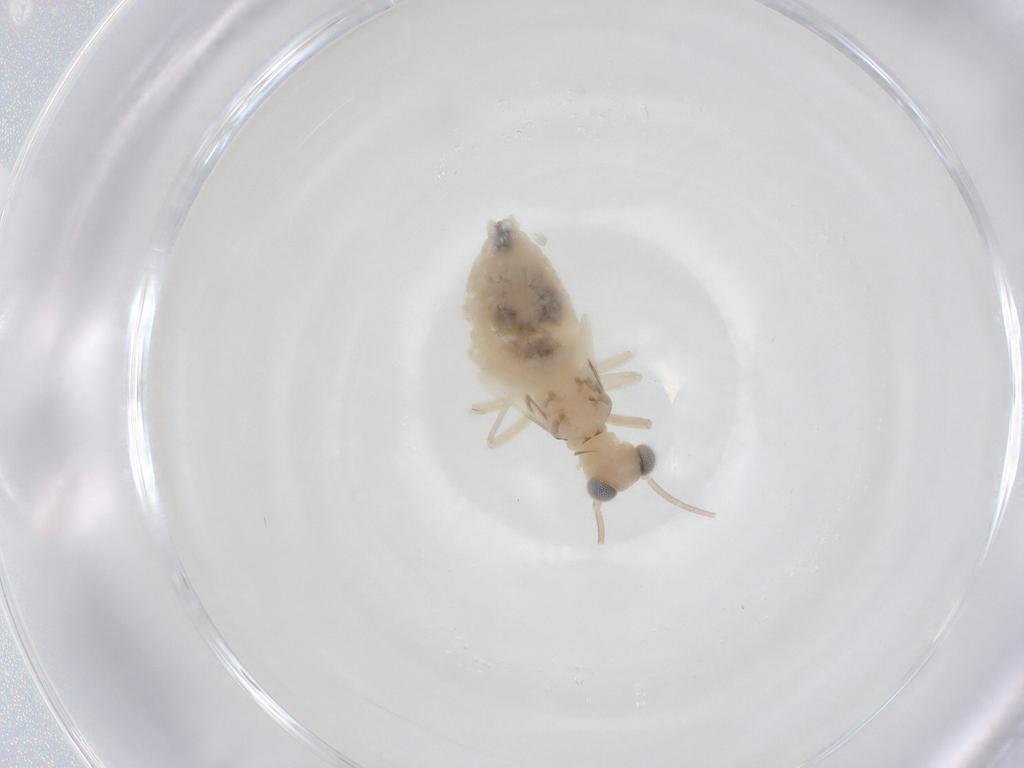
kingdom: Animalia
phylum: Arthropoda
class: Insecta
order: Psocodea
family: Caeciliusidae
